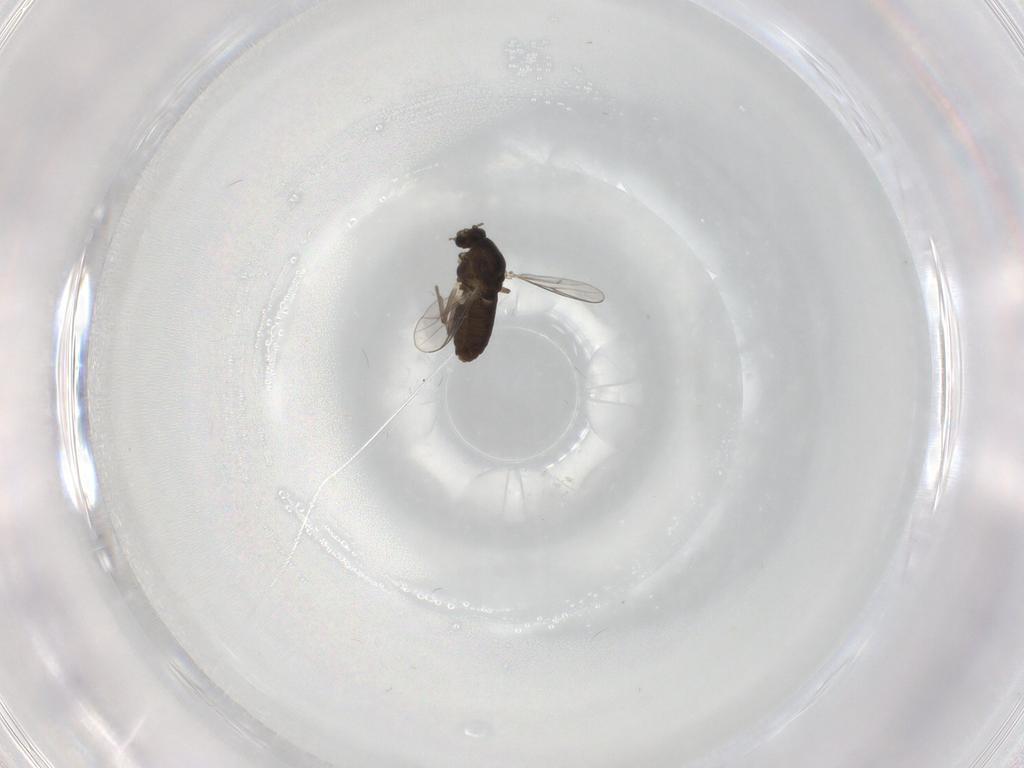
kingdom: Animalia
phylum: Arthropoda
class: Insecta
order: Diptera
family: Chironomidae
